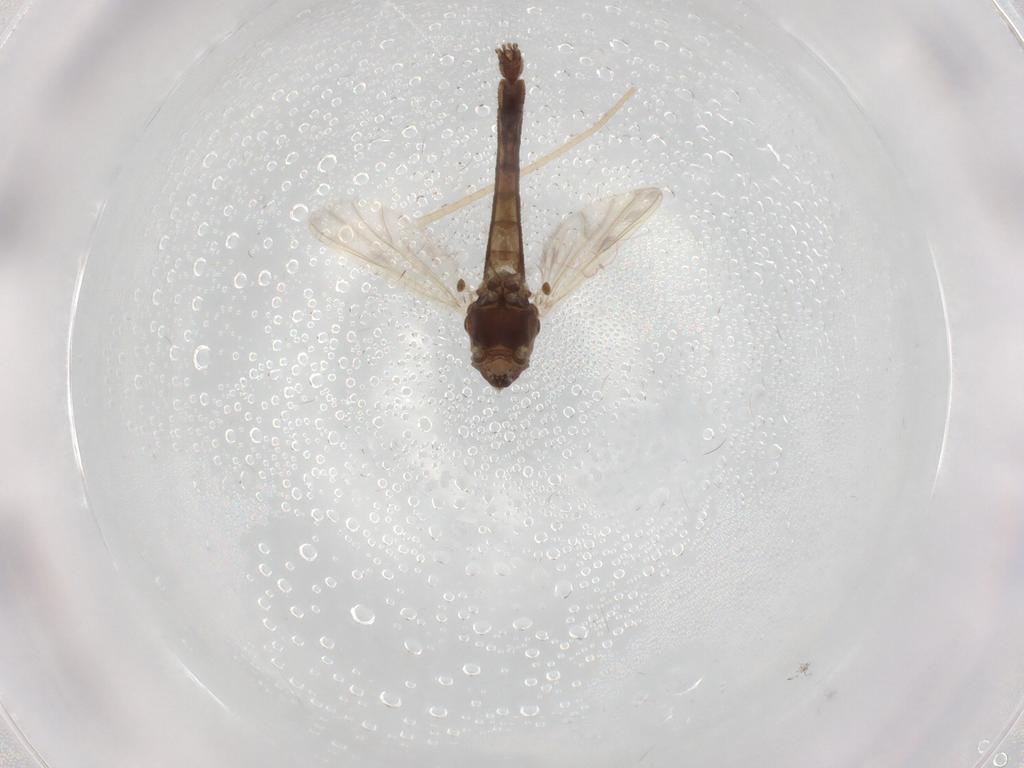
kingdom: Animalia
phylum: Arthropoda
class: Insecta
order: Diptera
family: Chironomidae
